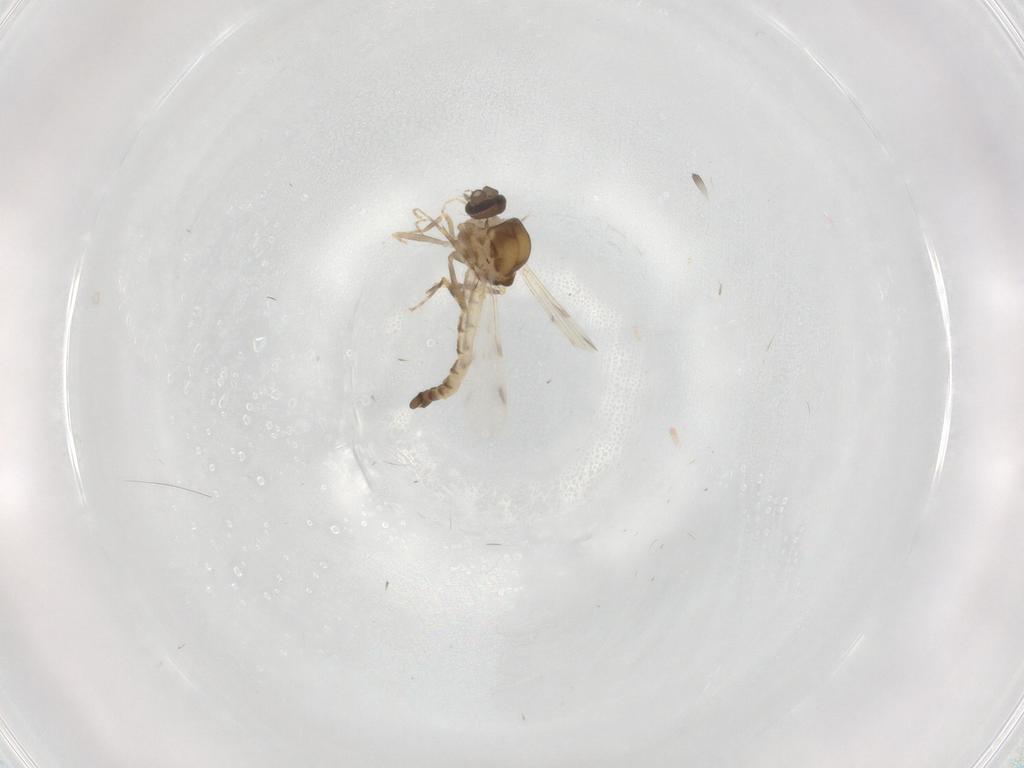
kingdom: Animalia
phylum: Arthropoda
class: Insecta
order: Diptera
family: Ceratopogonidae
